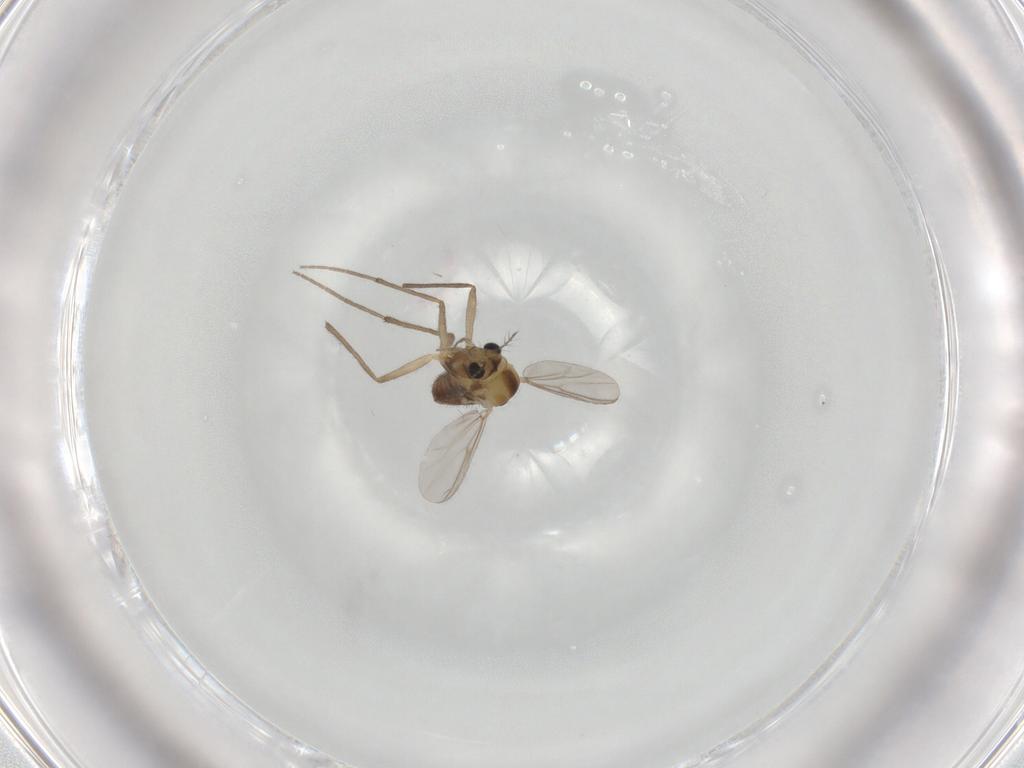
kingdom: Animalia
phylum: Arthropoda
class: Insecta
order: Diptera
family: Chironomidae
